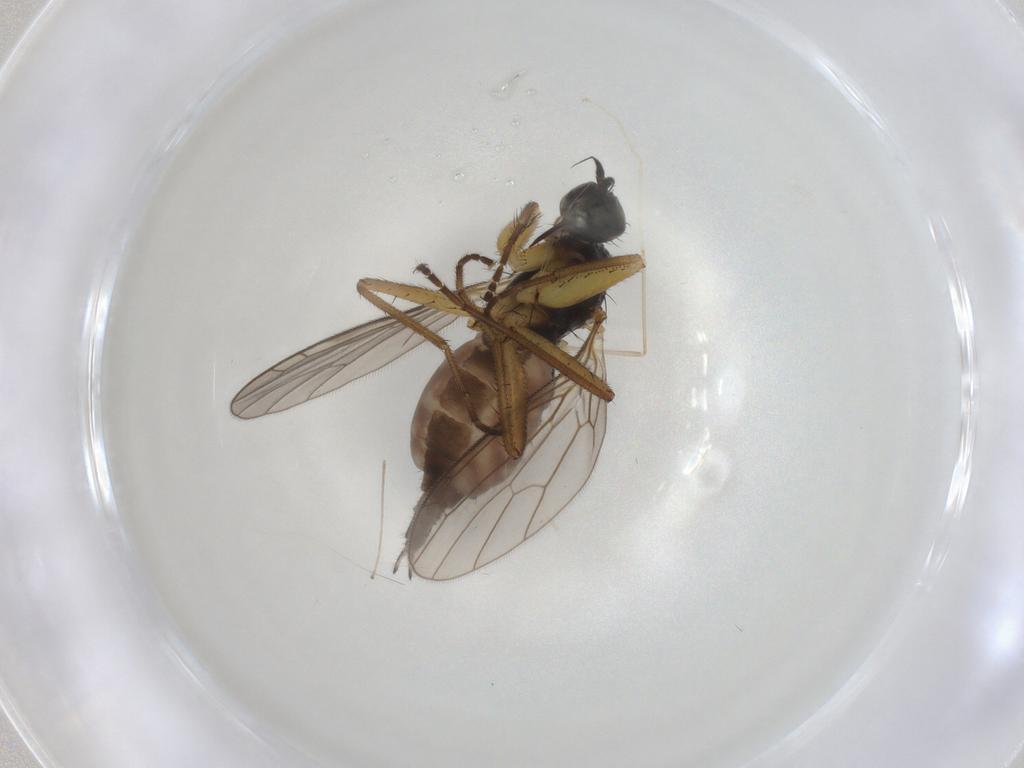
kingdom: Animalia
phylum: Arthropoda
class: Insecta
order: Diptera
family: Empididae
